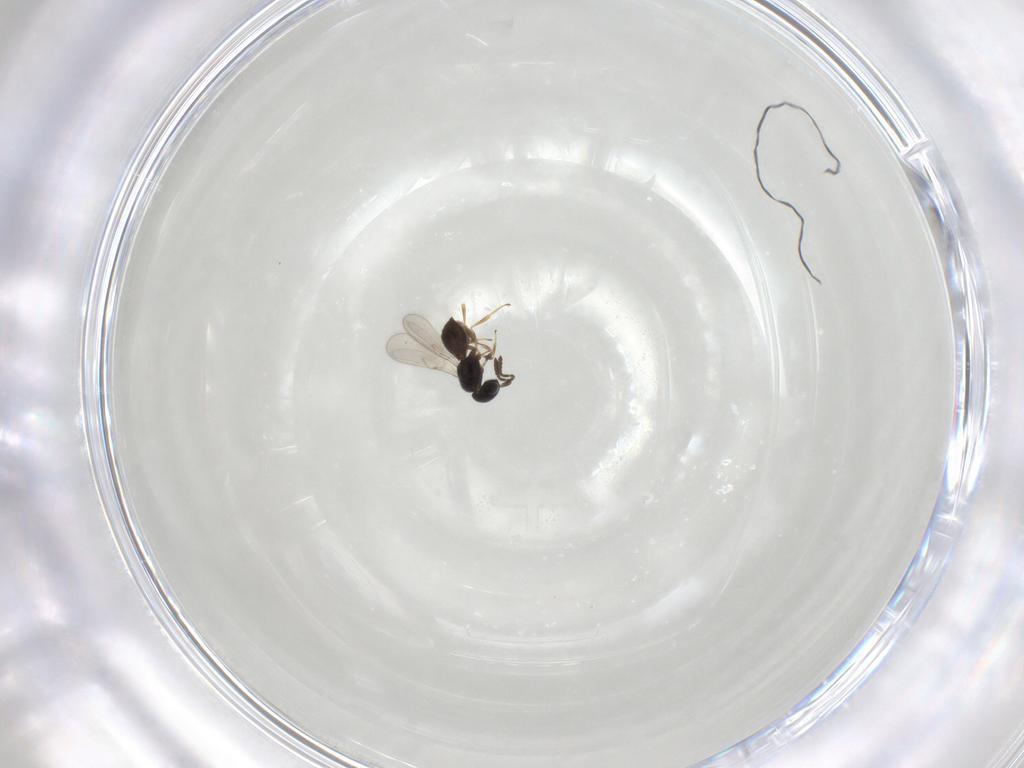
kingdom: Animalia
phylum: Arthropoda
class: Insecta
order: Hymenoptera
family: Scelionidae
